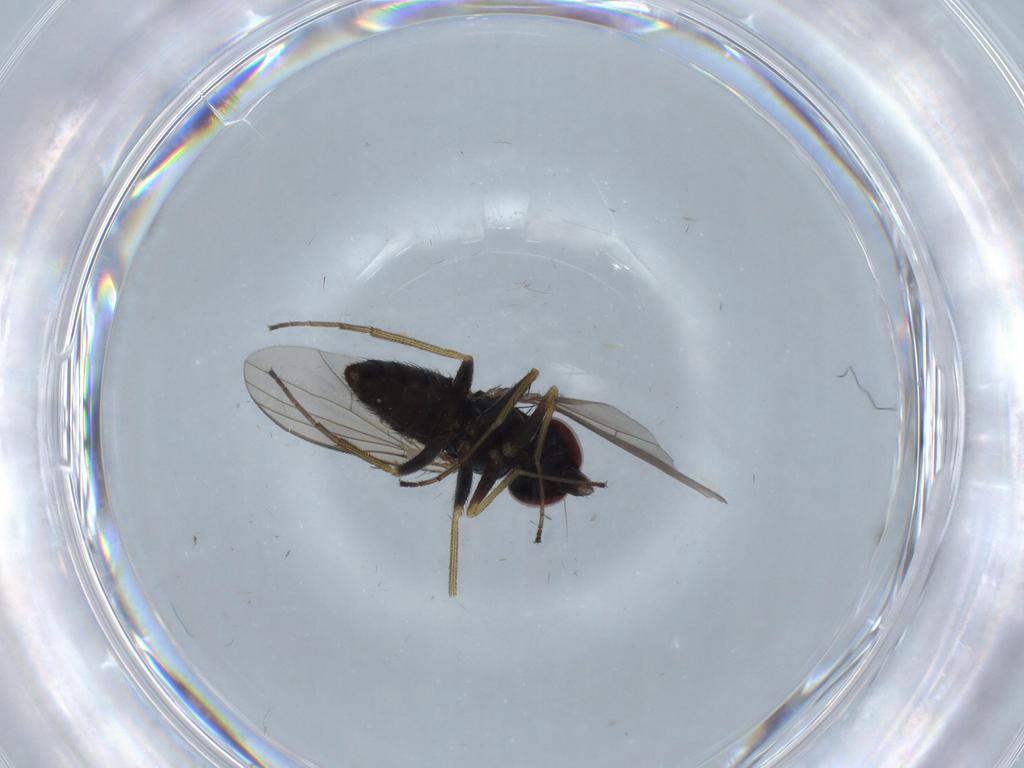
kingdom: Animalia
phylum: Arthropoda
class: Insecta
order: Diptera
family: Dolichopodidae
